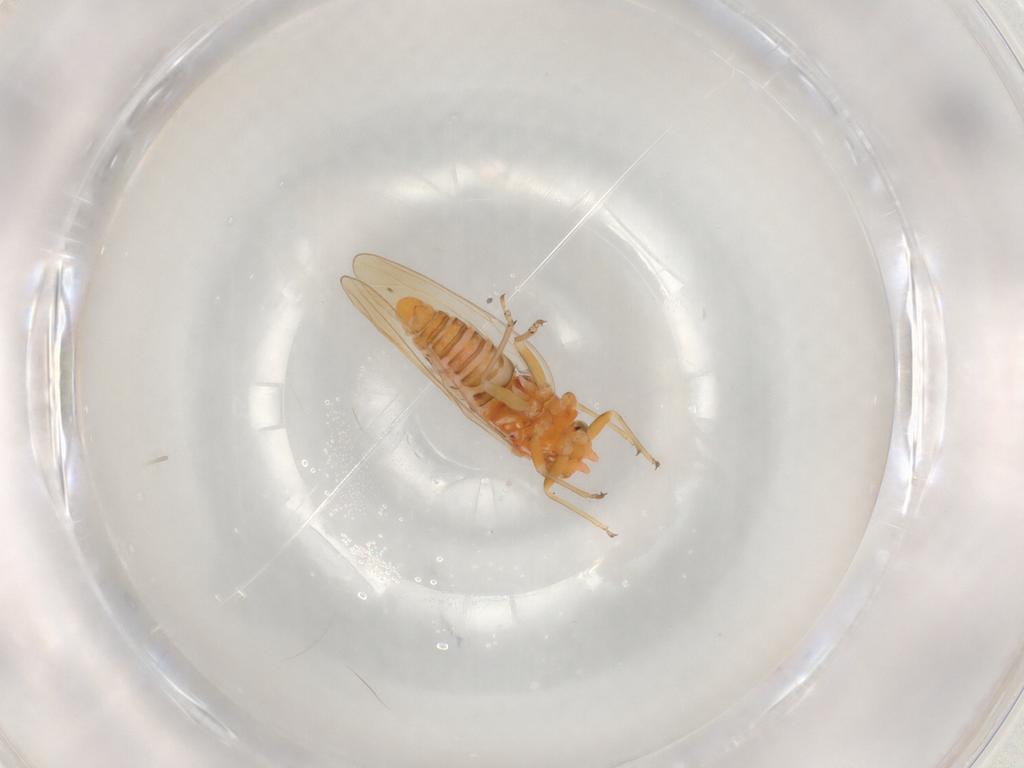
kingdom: Animalia
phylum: Arthropoda
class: Insecta
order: Hemiptera
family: Psyllidae
